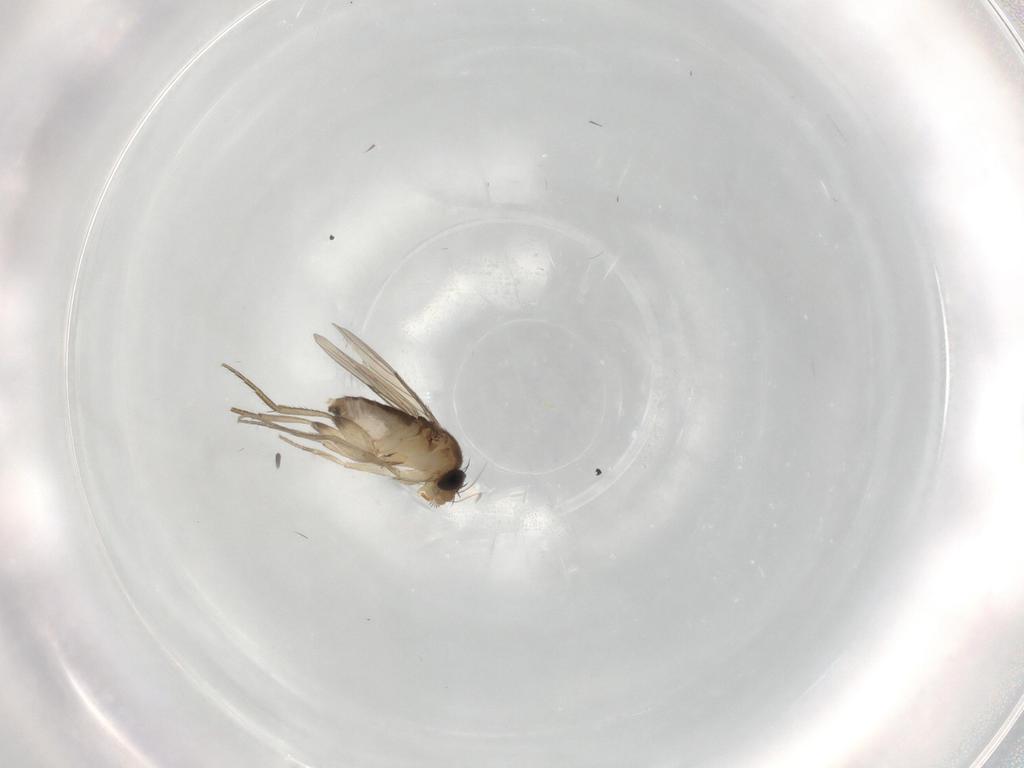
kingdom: Animalia
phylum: Arthropoda
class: Insecta
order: Diptera
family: Phoridae
